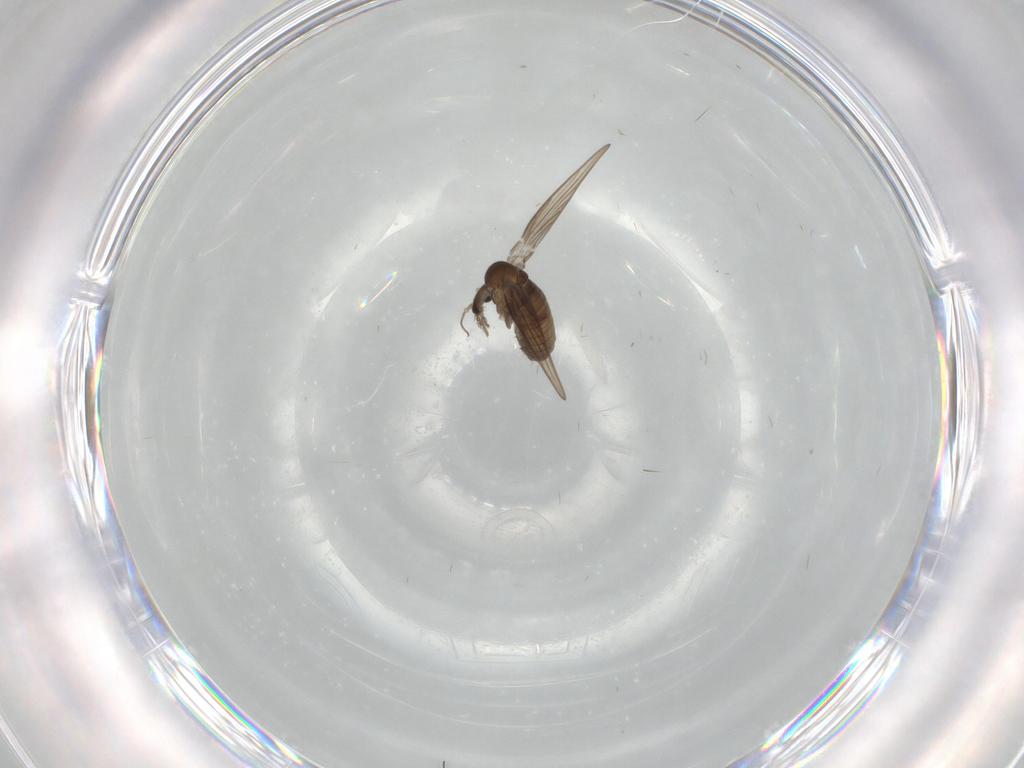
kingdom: Animalia
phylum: Arthropoda
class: Insecta
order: Diptera
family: Psychodidae
